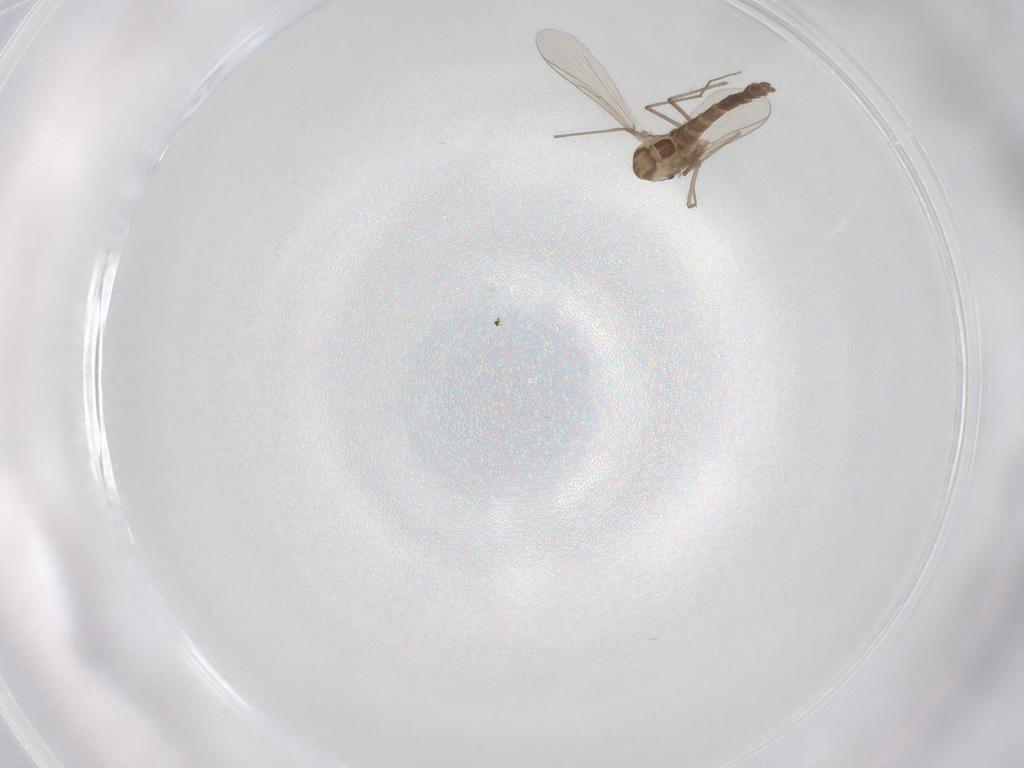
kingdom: Animalia
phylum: Arthropoda
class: Insecta
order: Diptera
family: Chironomidae
